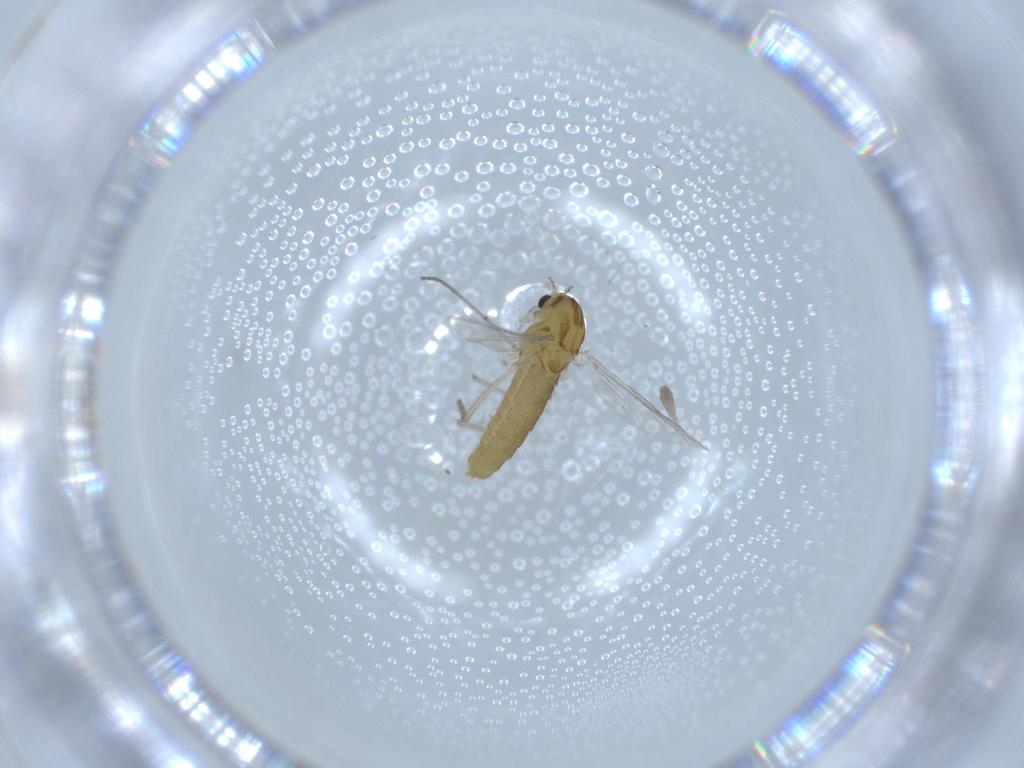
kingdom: Animalia
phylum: Arthropoda
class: Insecta
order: Diptera
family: Chironomidae
